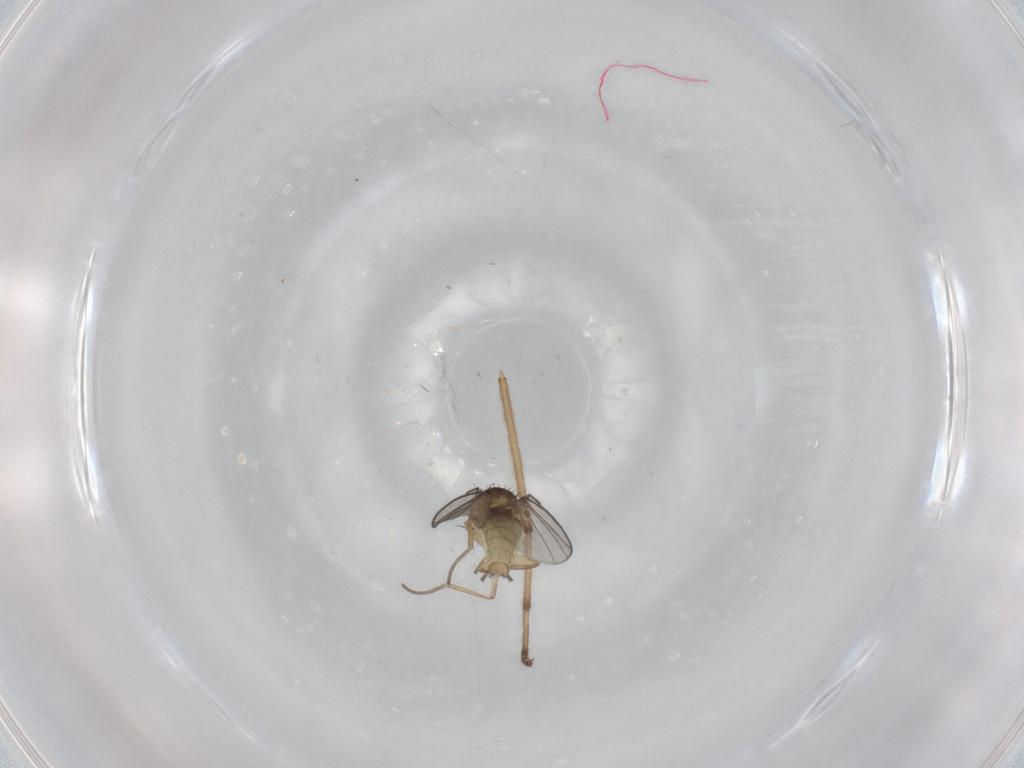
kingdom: Animalia
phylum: Arthropoda
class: Insecta
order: Diptera
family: Agromyzidae
